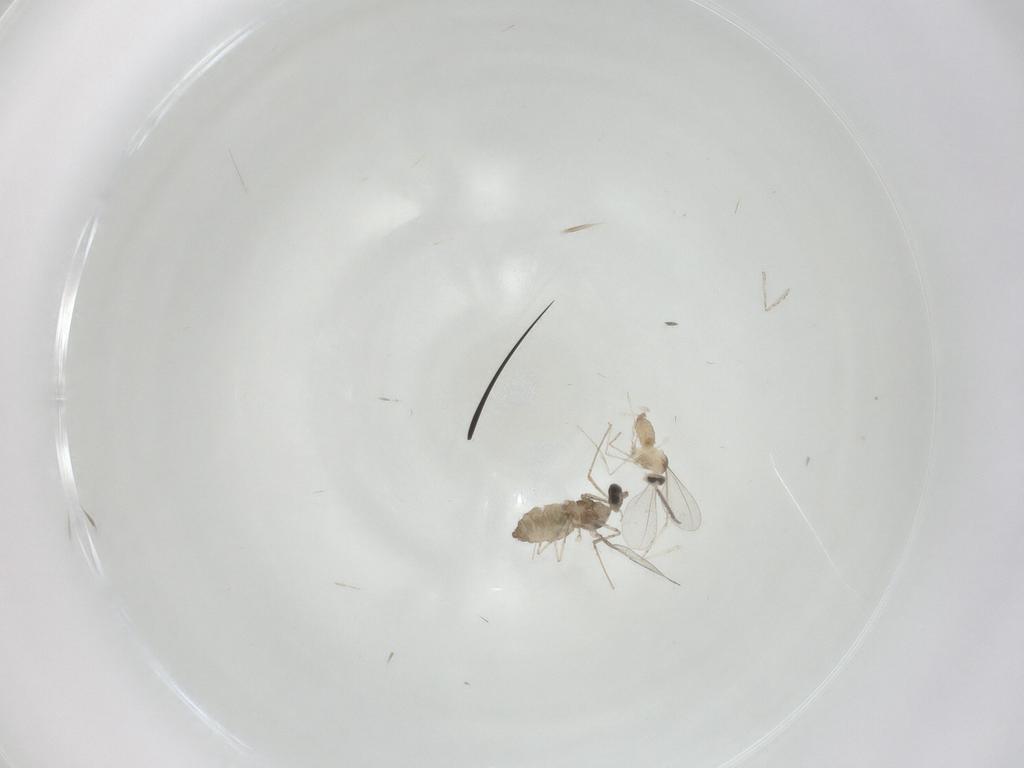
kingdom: Animalia
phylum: Arthropoda
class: Insecta
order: Diptera
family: Cecidomyiidae
